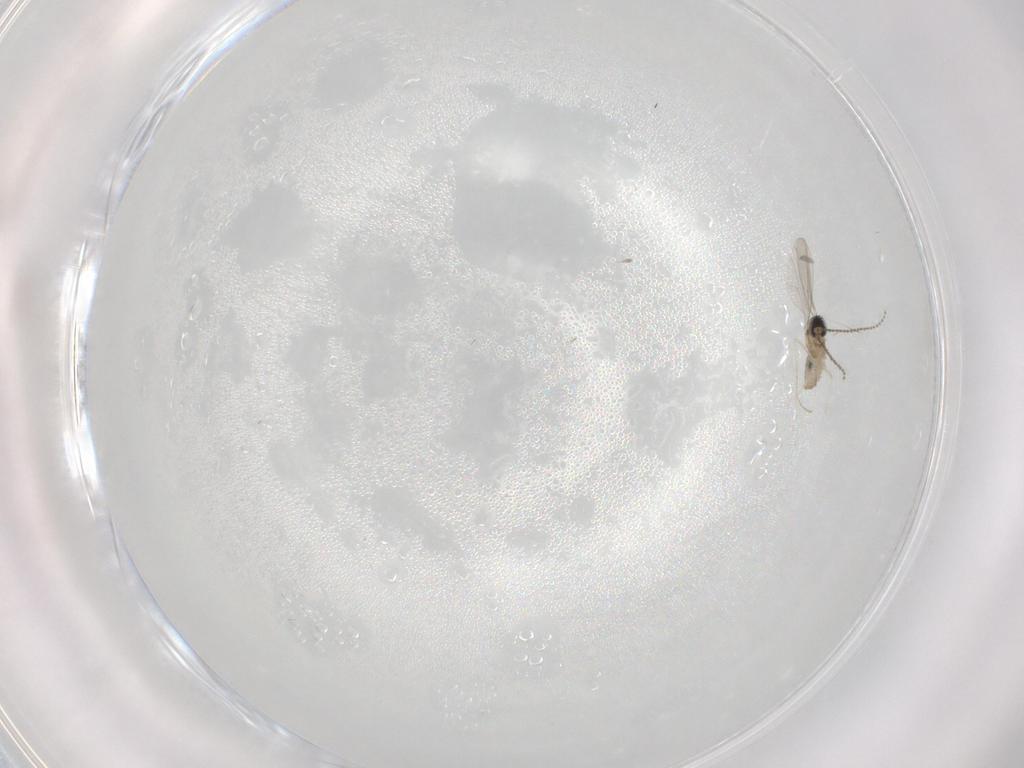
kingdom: Animalia
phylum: Arthropoda
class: Insecta
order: Diptera
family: Cecidomyiidae
